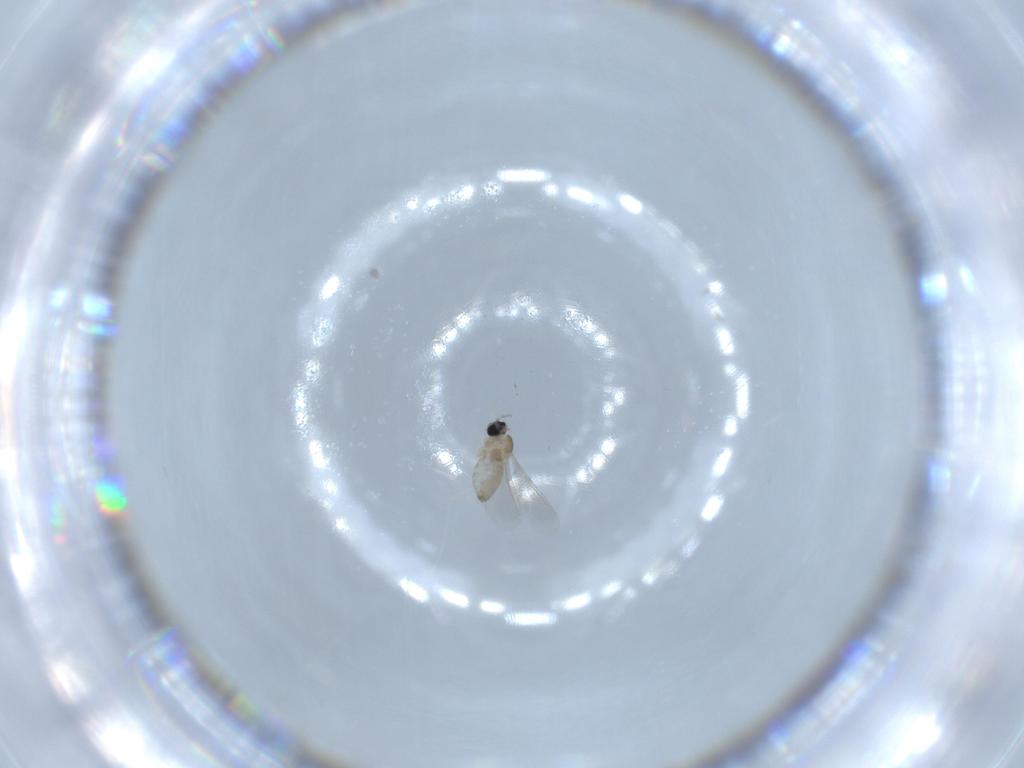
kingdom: Animalia
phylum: Arthropoda
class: Insecta
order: Diptera
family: Cecidomyiidae
